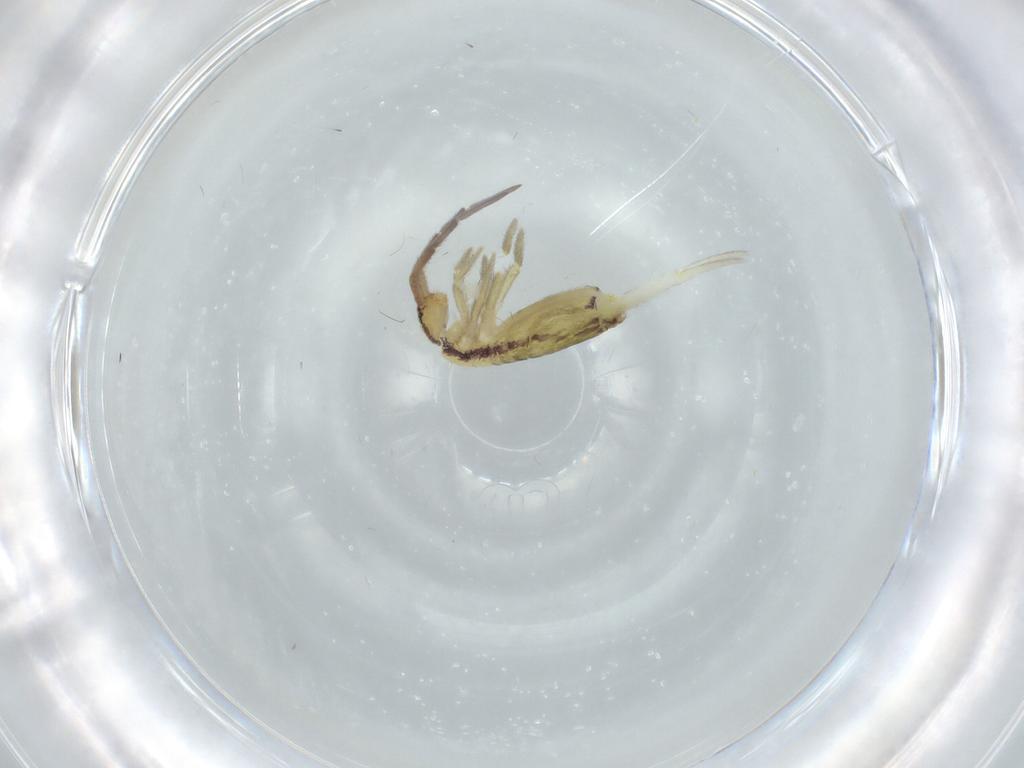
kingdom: Animalia
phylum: Arthropoda
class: Collembola
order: Entomobryomorpha
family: Entomobryidae
